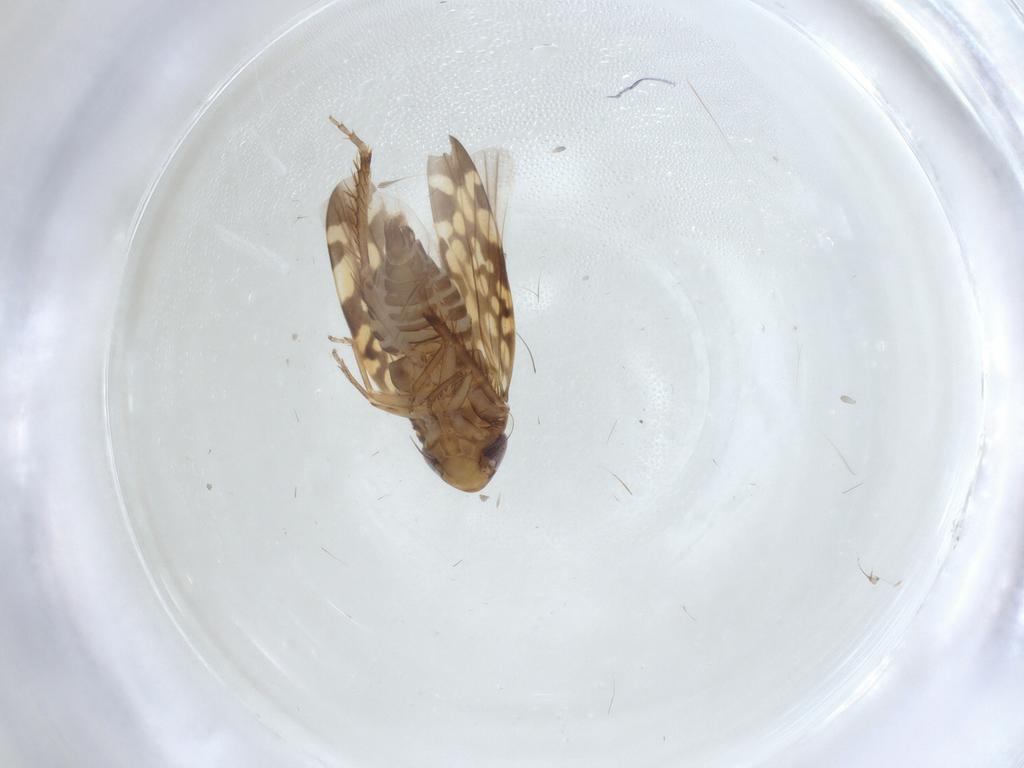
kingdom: Animalia
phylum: Arthropoda
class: Insecta
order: Hemiptera
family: Cicadellidae
